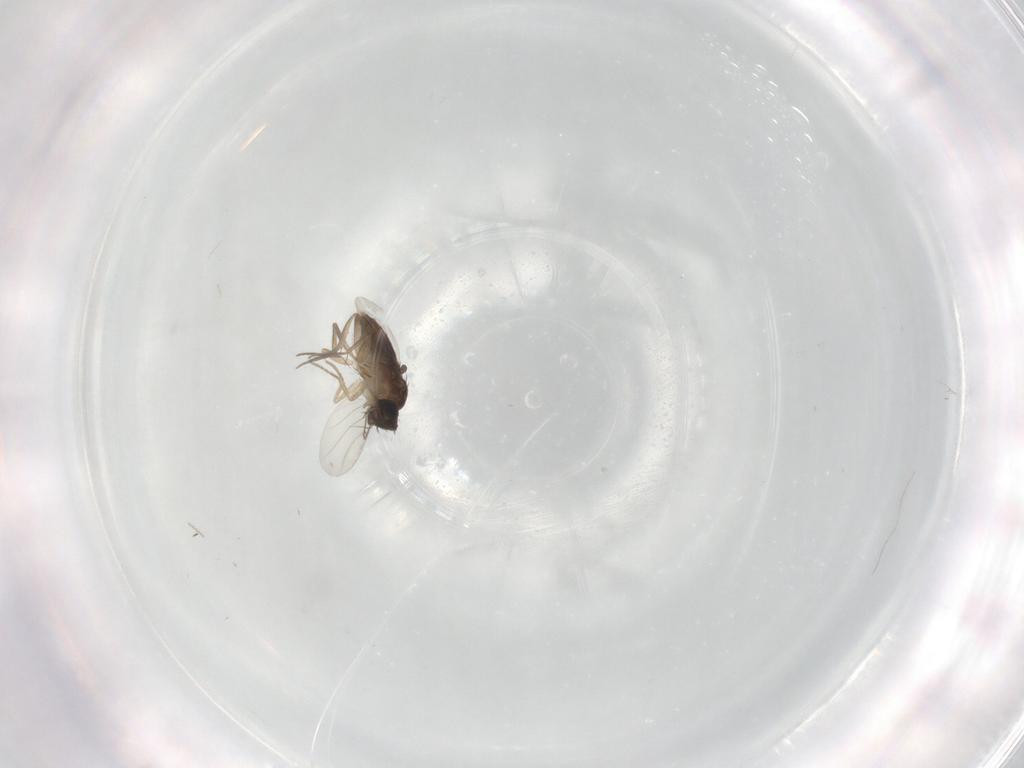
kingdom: Animalia
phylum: Arthropoda
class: Insecta
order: Diptera
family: Phoridae
